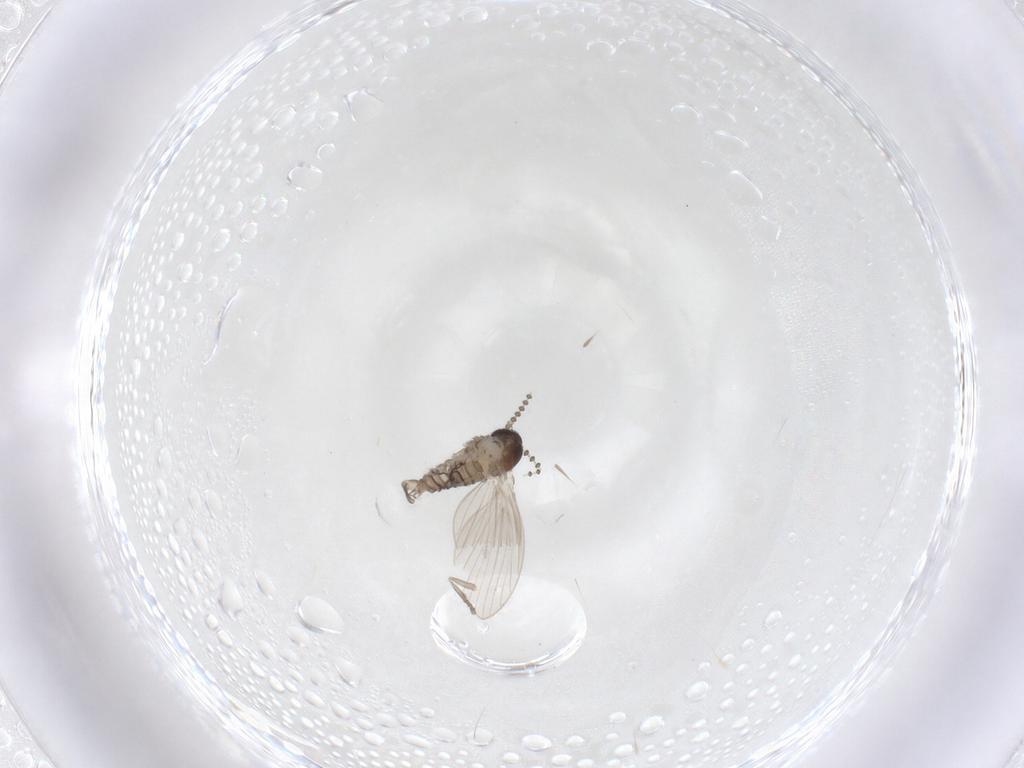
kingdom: Animalia
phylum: Arthropoda
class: Insecta
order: Diptera
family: Psychodidae
